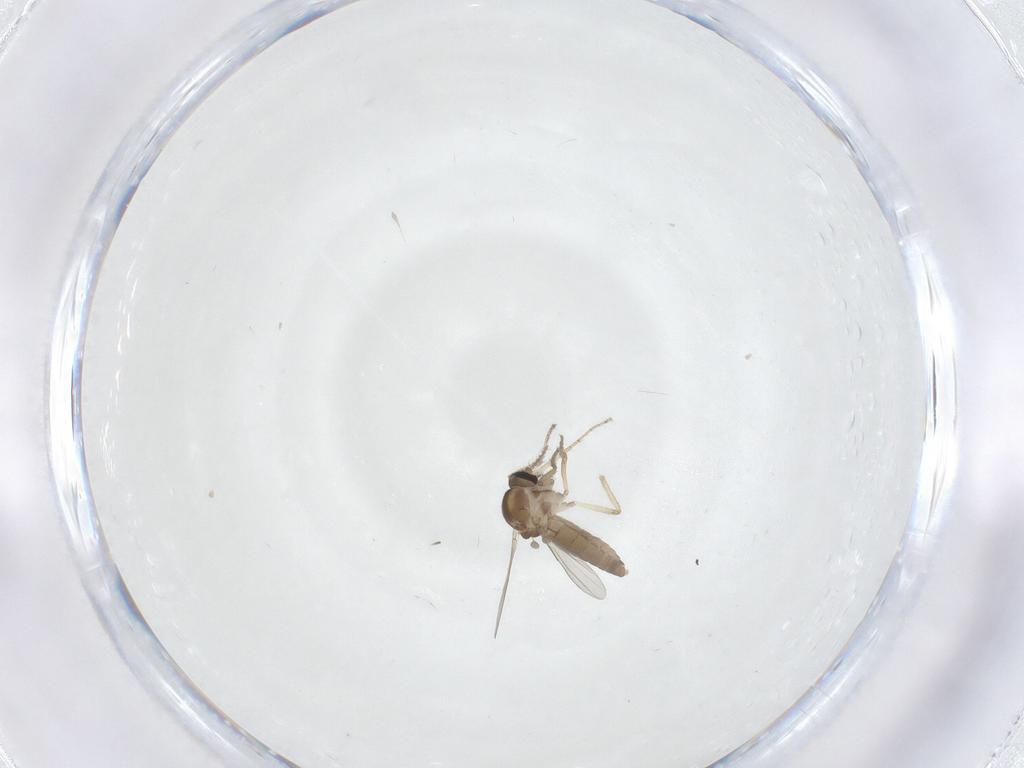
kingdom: Animalia
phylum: Arthropoda
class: Insecta
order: Diptera
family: Ceratopogonidae
